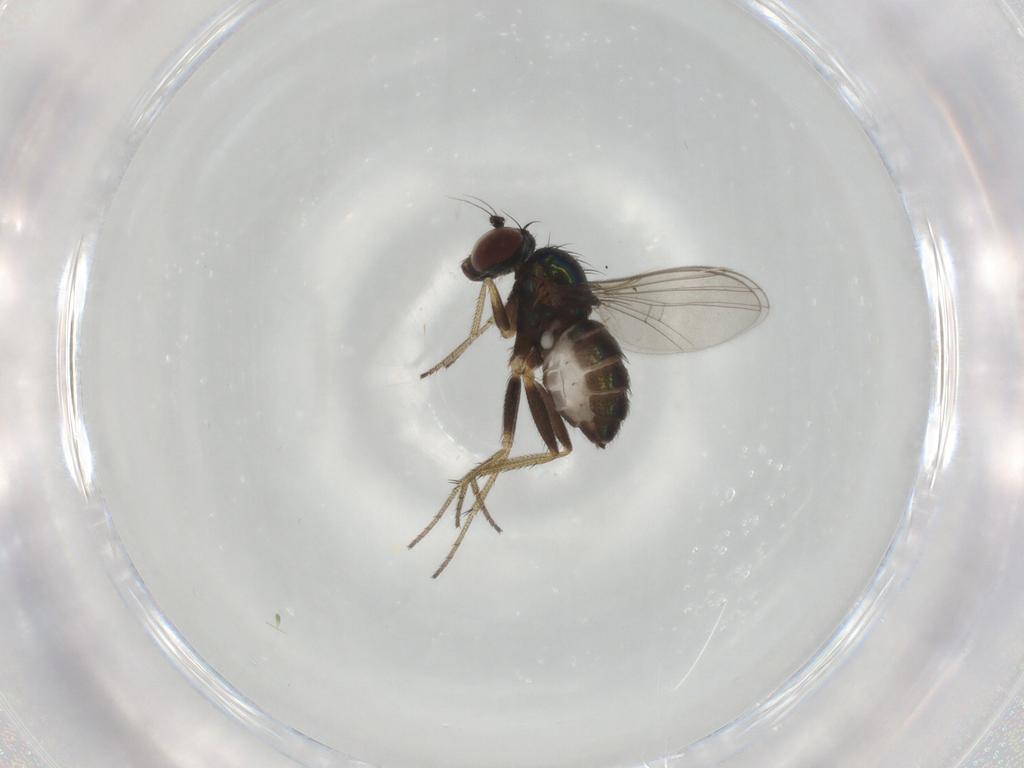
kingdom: Animalia
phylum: Arthropoda
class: Insecta
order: Diptera
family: Dolichopodidae
